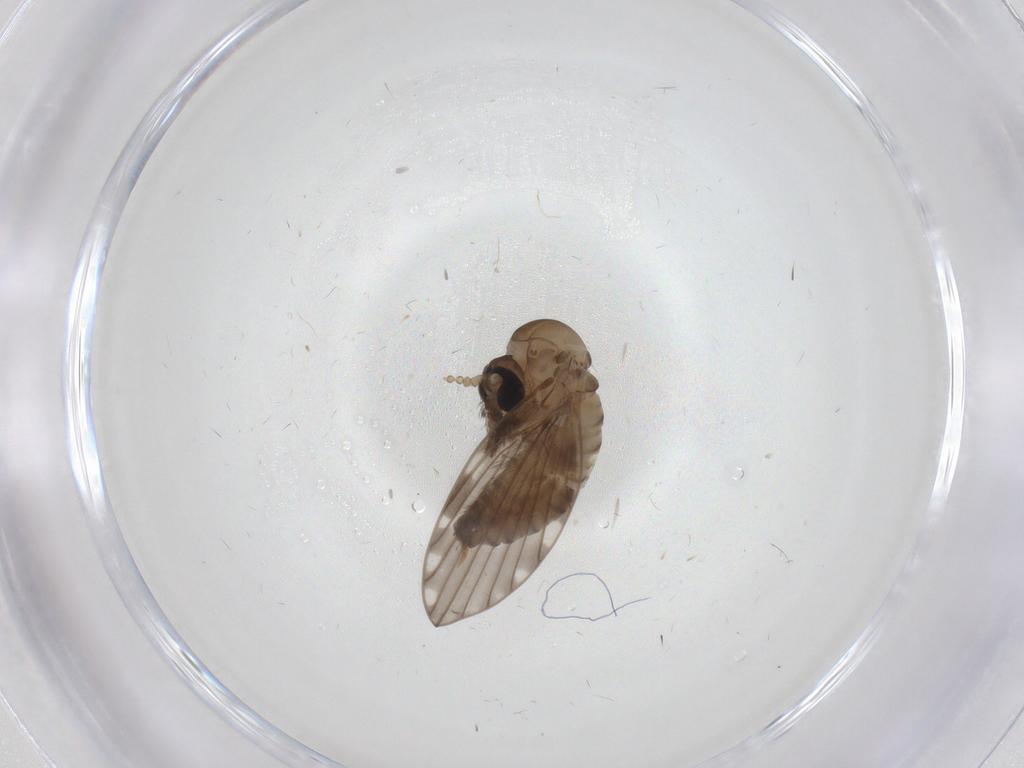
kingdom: Animalia
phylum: Arthropoda
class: Insecta
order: Diptera
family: Psychodidae
